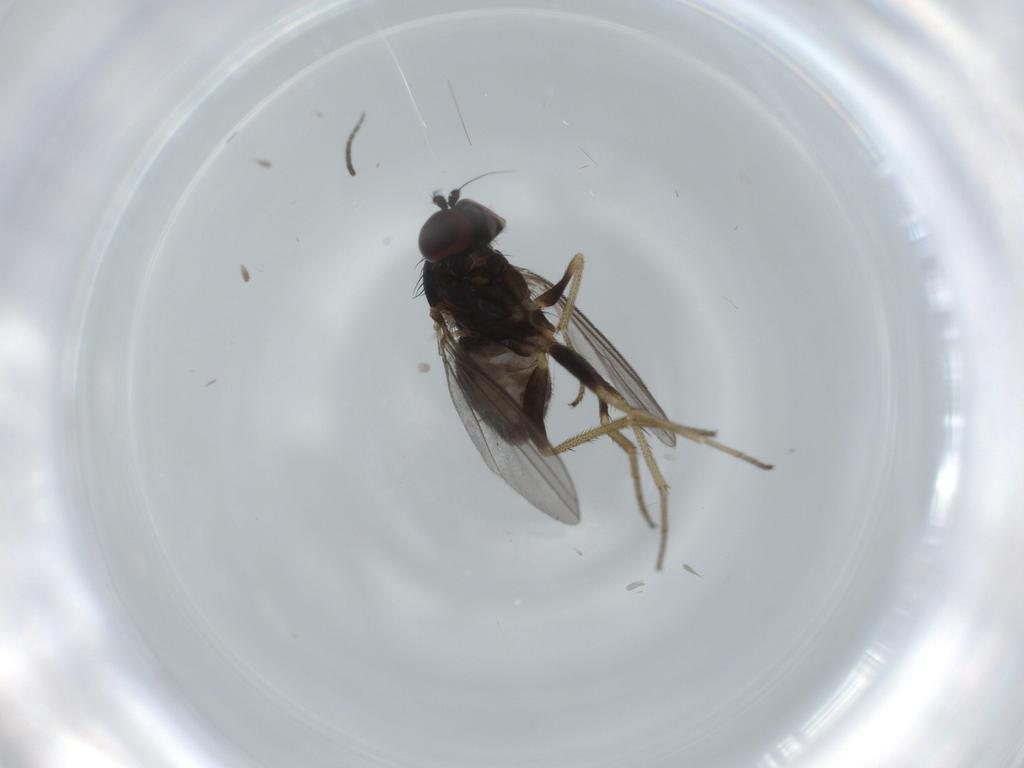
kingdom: Animalia
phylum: Arthropoda
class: Insecta
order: Diptera
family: Dolichopodidae
